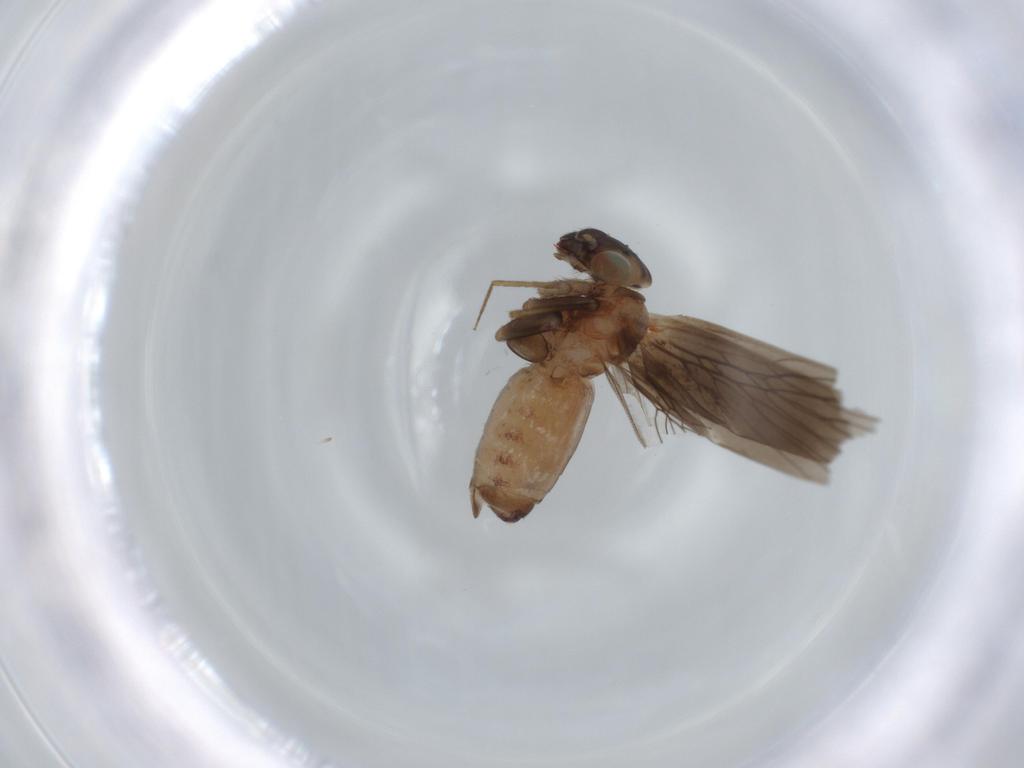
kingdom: Animalia
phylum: Arthropoda
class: Insecta
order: Psocodea
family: Lepidopsocidae
